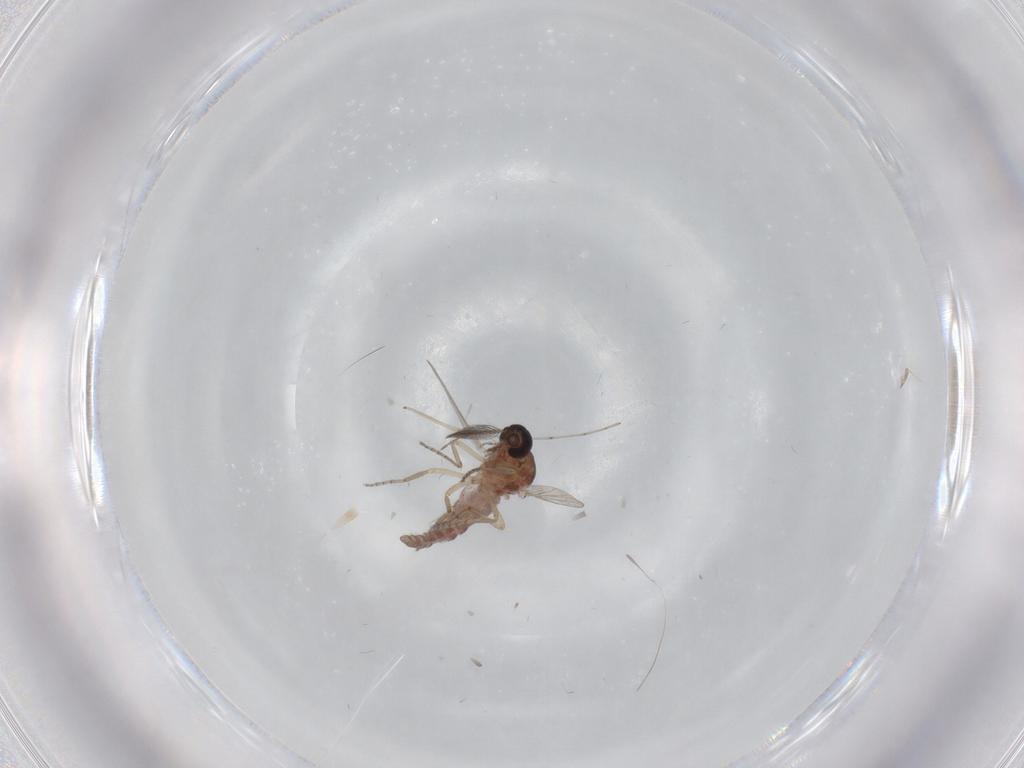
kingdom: Animalia
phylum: Arthropoda
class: Insecta
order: Diptera
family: Ceratopogonidae
